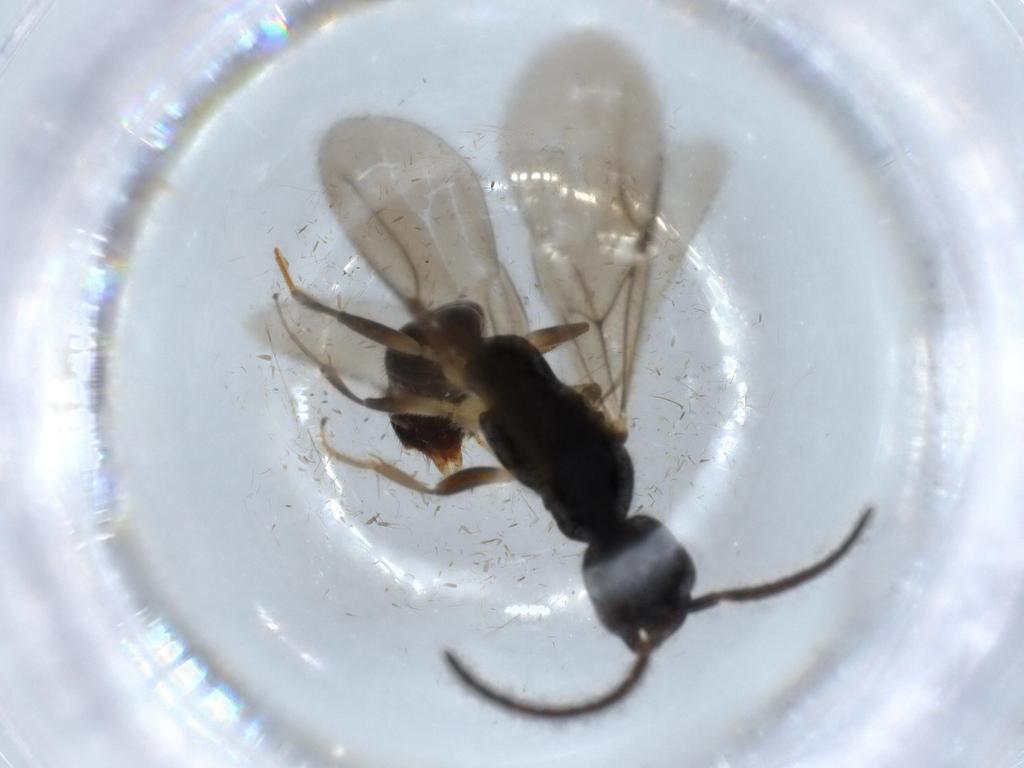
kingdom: Animalia
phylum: Arthropoda
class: Insecta
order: Hymenoptera
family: Bethylidae
